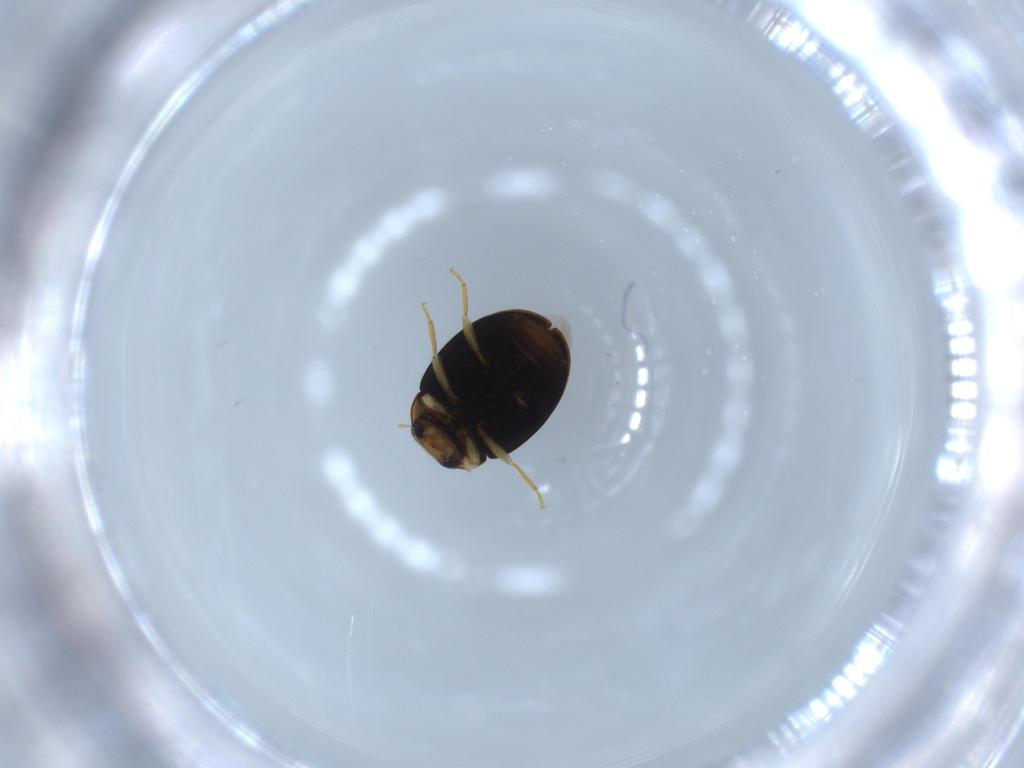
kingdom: Animalia
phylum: Arthropoda
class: Insecta
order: Coleoptera
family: Coccinellidae
